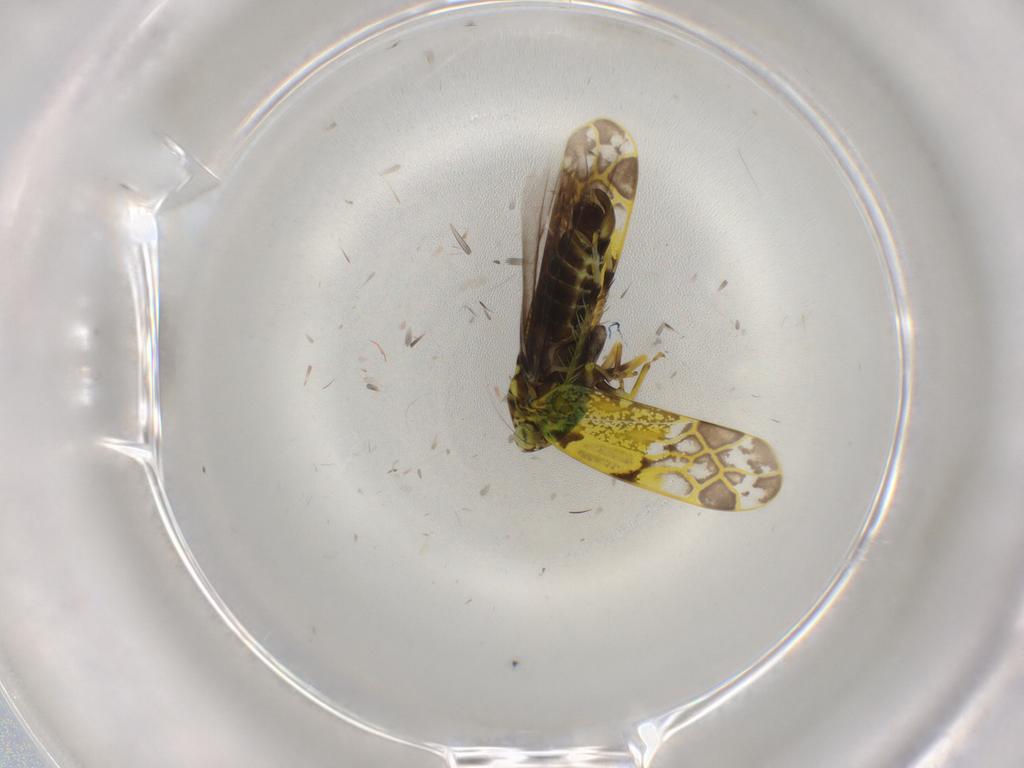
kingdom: Animalia
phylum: Arthropoda
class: Insecta
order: Hemiptera
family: Cicadellidae
